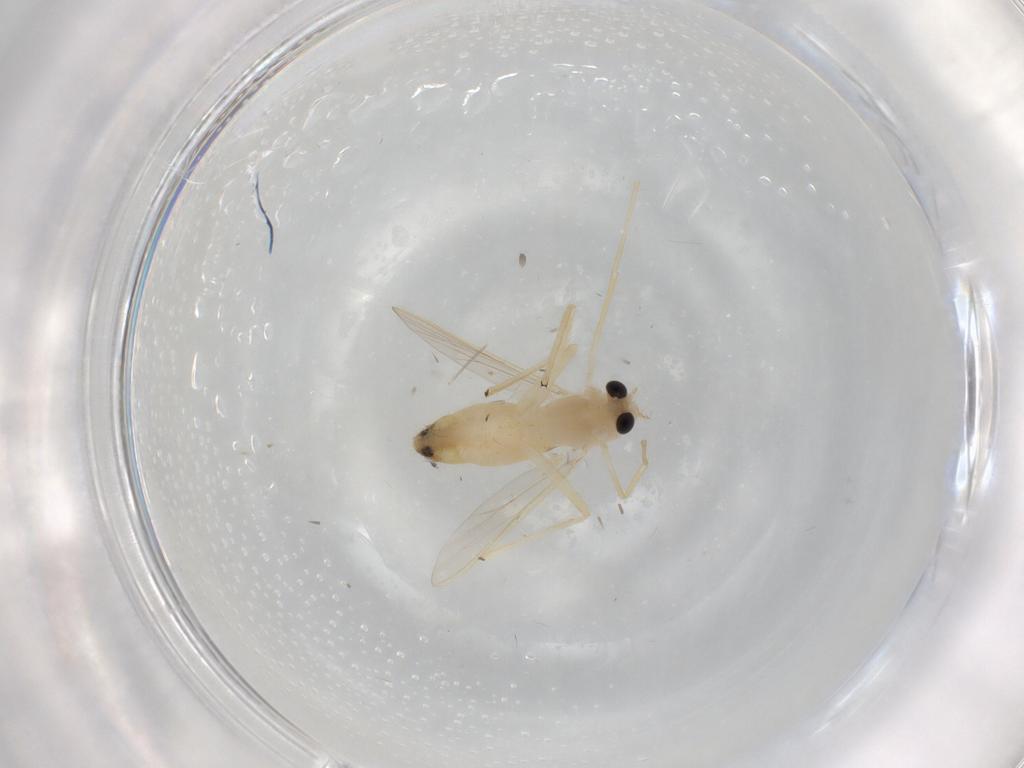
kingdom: Animalia
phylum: Arthropoda
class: Insecta
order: Diptera
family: Chironomidae
